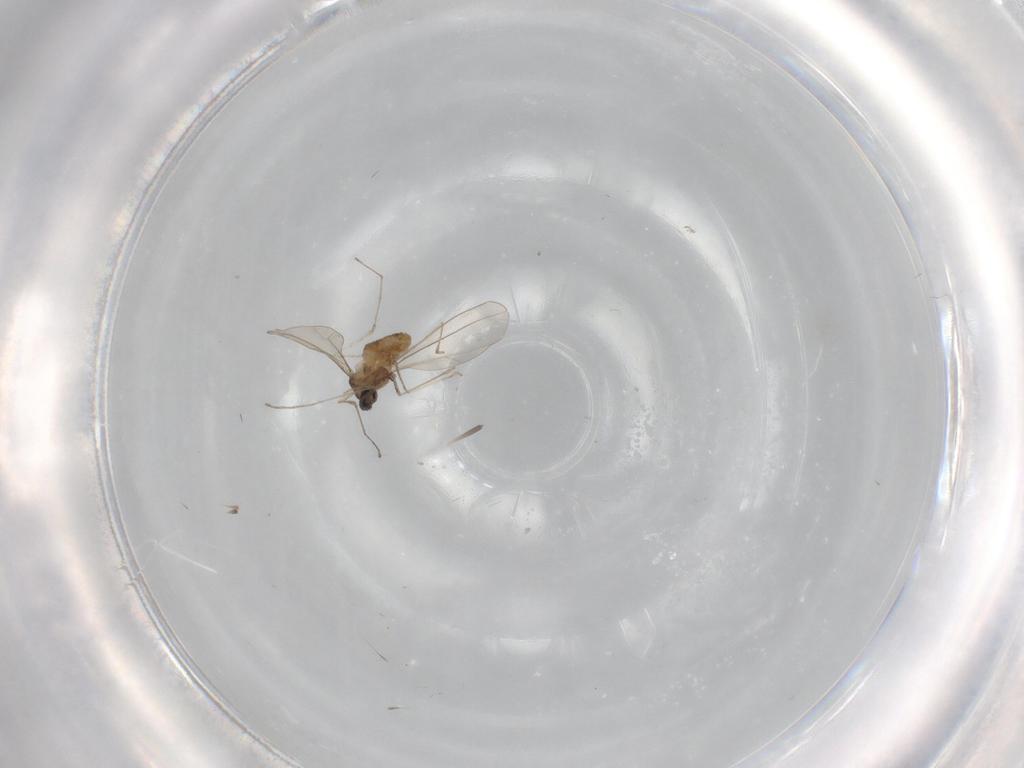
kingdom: Animalia
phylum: Arthropoda
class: Insecta
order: Diptera
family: Cecidomyiidae
